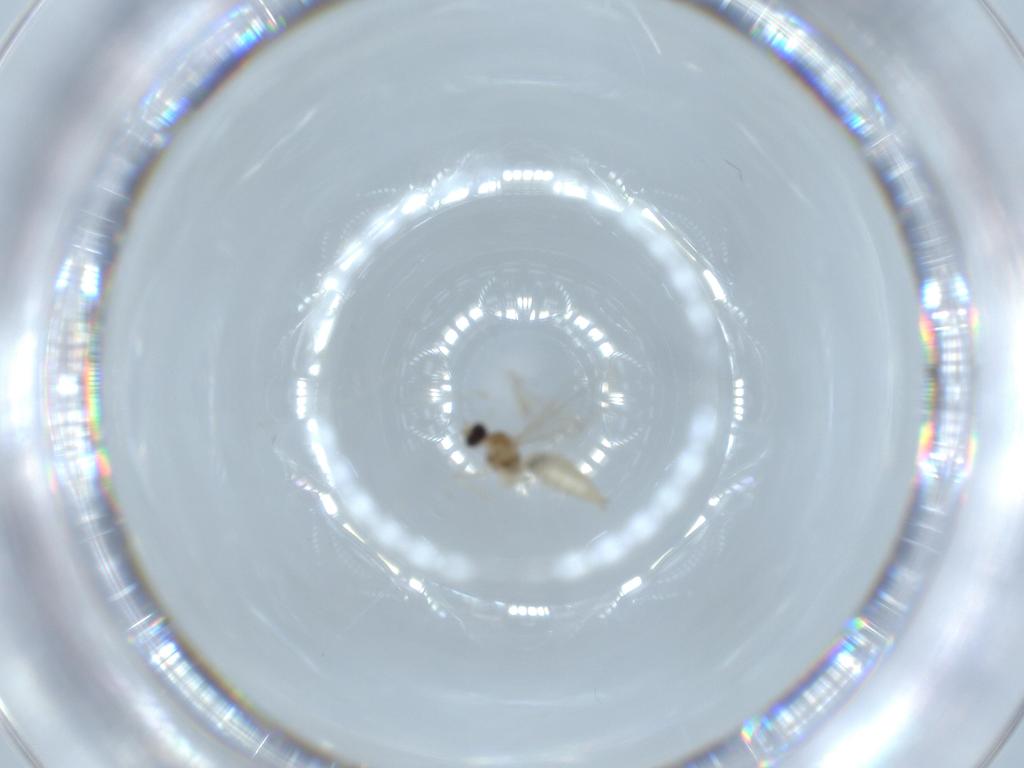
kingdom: Animalia
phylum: Arthropoda
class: Insecta
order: Diptera
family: Cecidomyiidae
